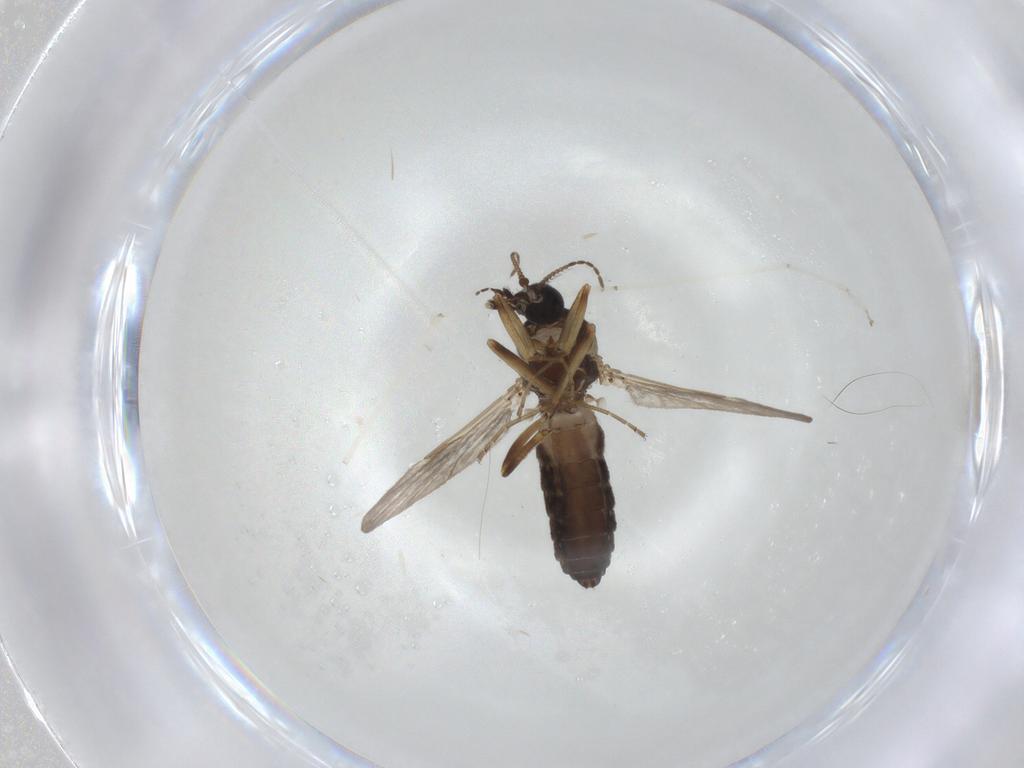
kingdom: Animalia
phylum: Arthropoda
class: Insecta
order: Diptera
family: Ceratopogonidae
